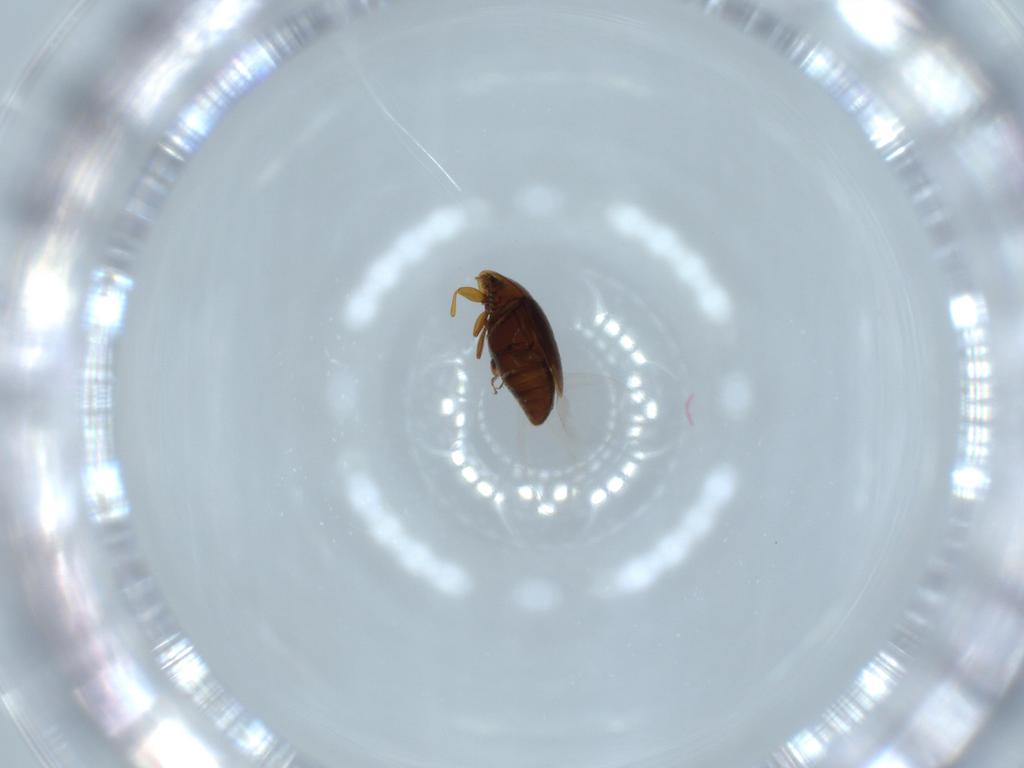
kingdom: Animalia
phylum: Arthropoda
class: Insecta
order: Coleoptera
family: Corylophidae
